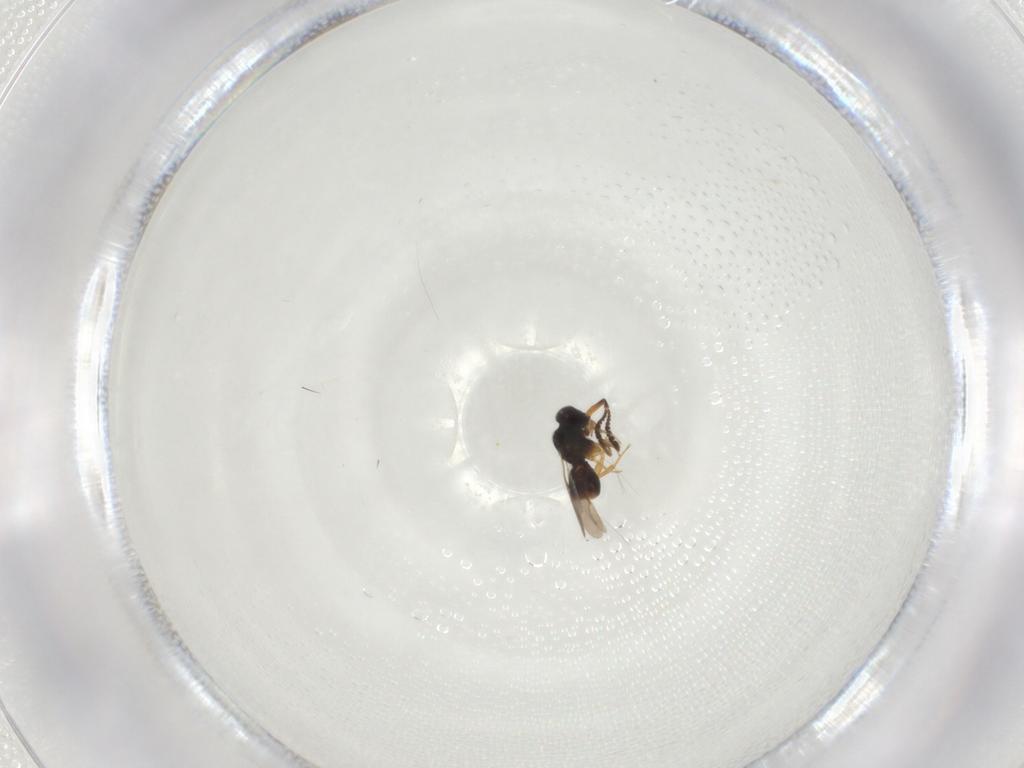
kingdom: Animalia
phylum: Arthropoda
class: Insecta
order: Hymenoptera
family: Ceraphronidae
